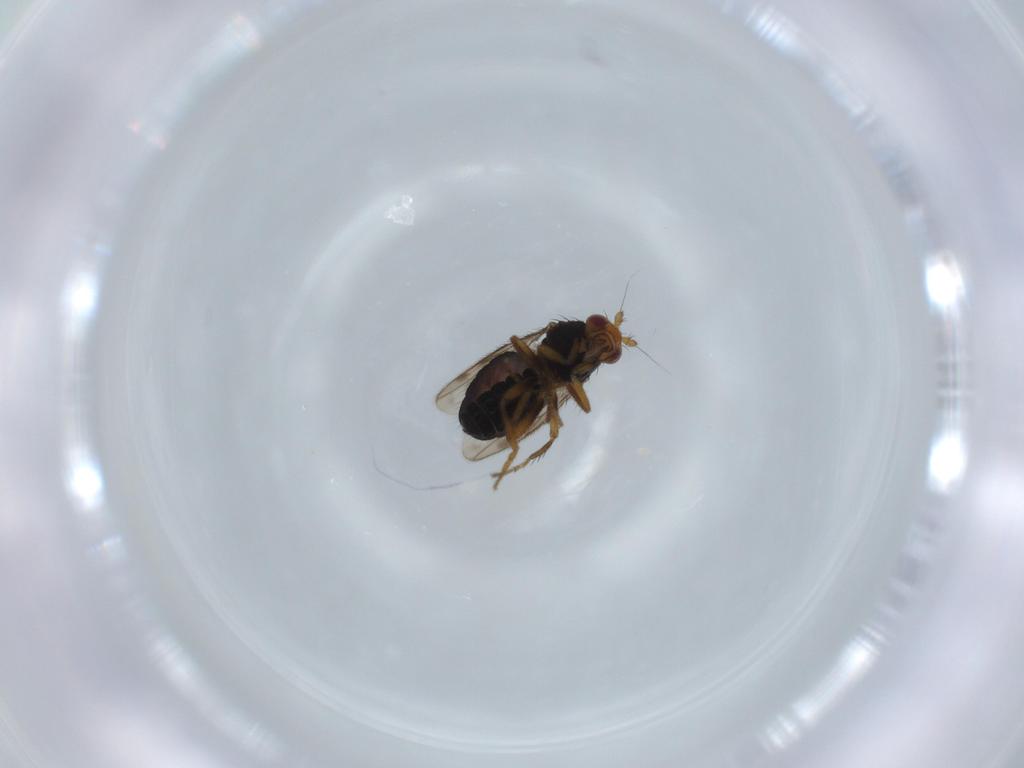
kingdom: Animalia
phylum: Arthropoda
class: Insecta
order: Diptera
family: Sphaeroceridae
